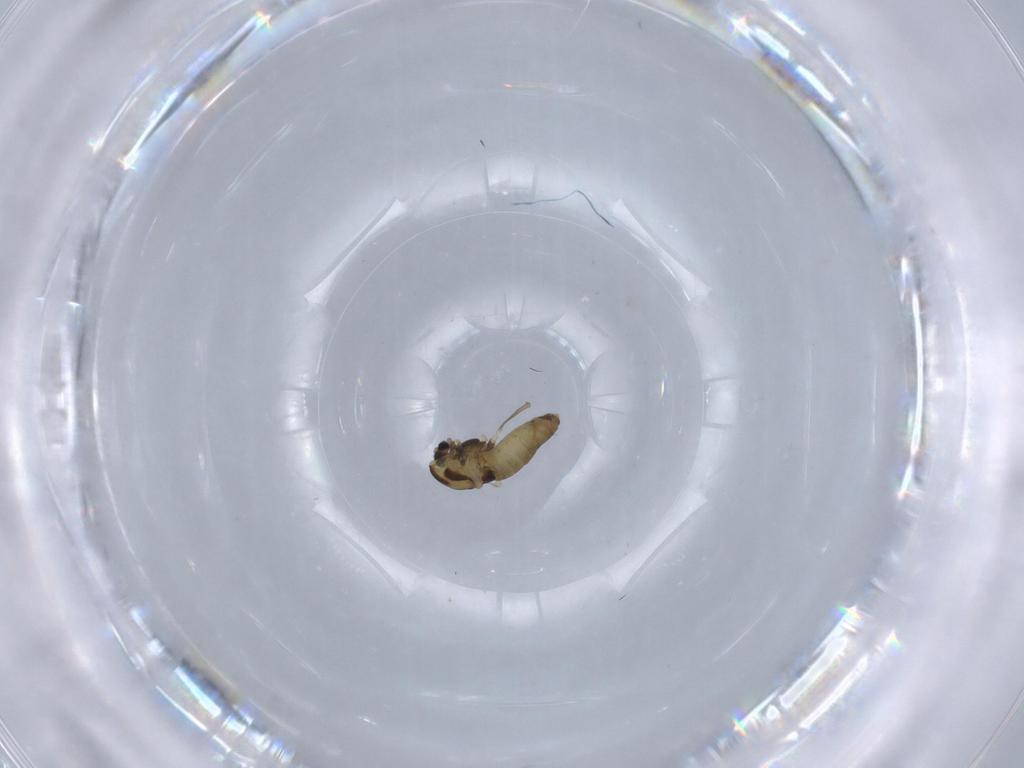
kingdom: Animalia
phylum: Arthropoda
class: Insecta
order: Diptera
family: Chironomidae
